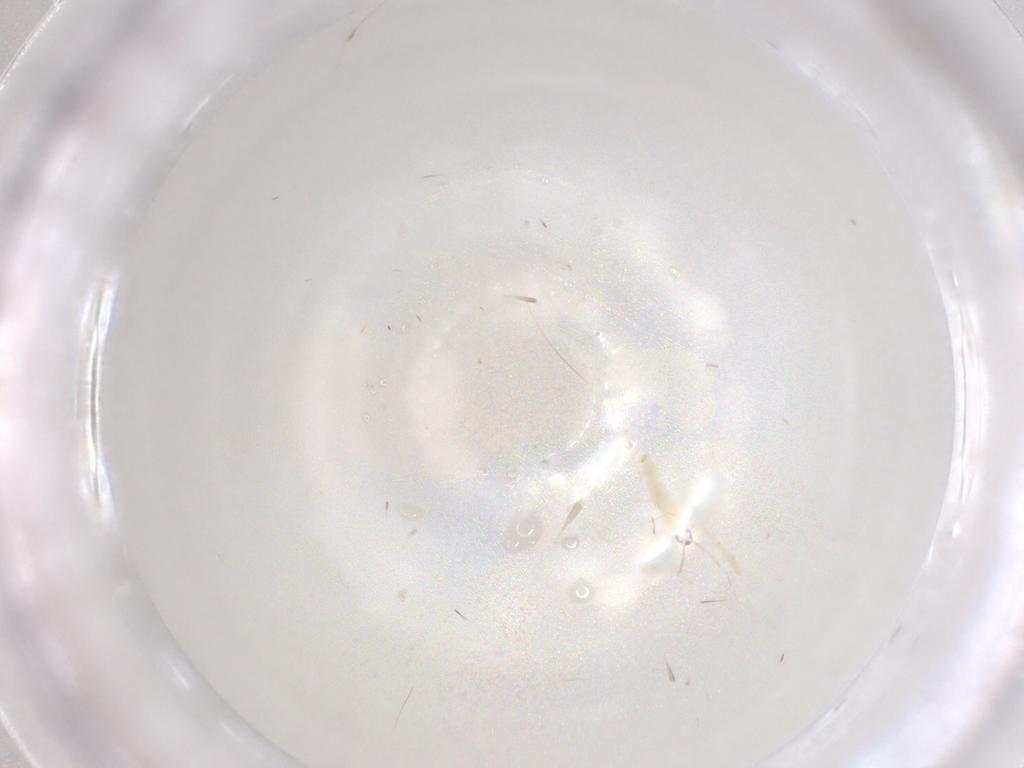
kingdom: Animalia
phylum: Arthropoda
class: Insecta
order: Diptera
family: Cecidomyiidae
